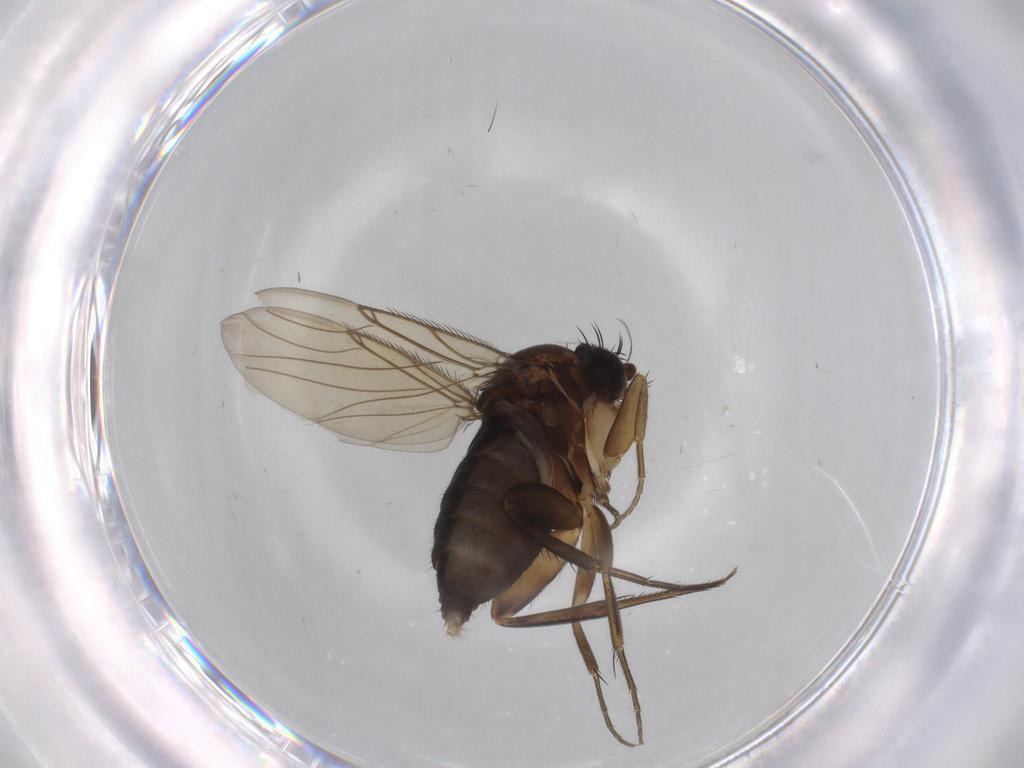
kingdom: Animalia
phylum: Arthropoda
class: Insecta
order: Diptera
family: Phoridae
